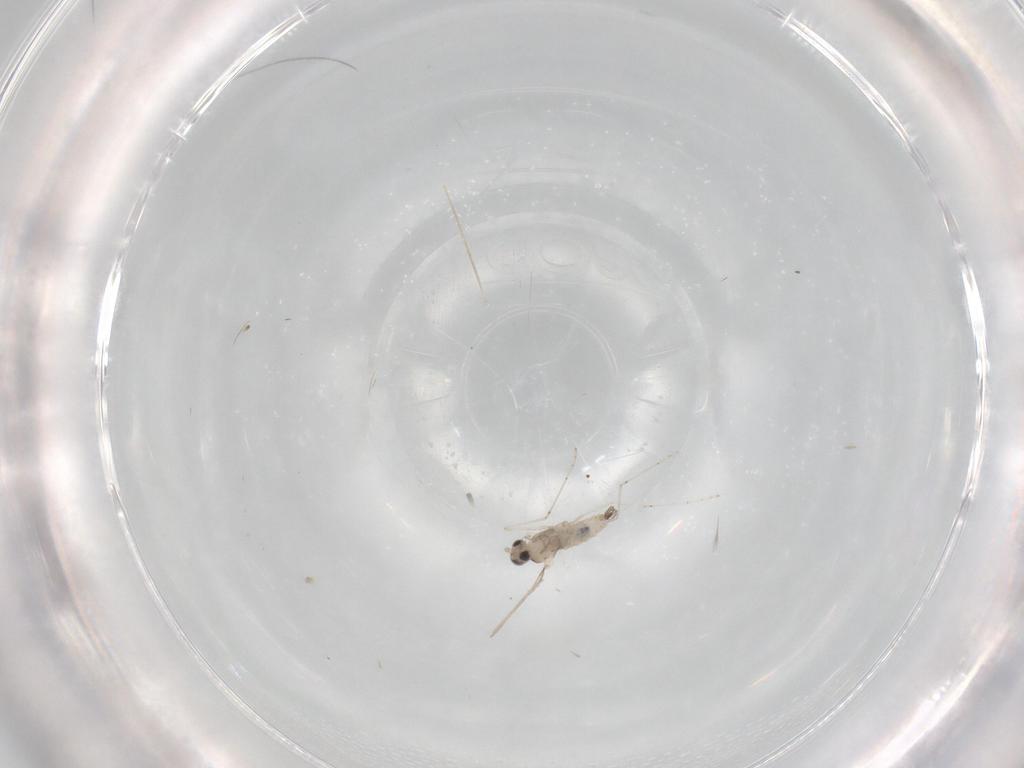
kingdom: Animalia
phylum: Arthropoda
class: Insecta
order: Diptera
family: Cecidomyiidae
